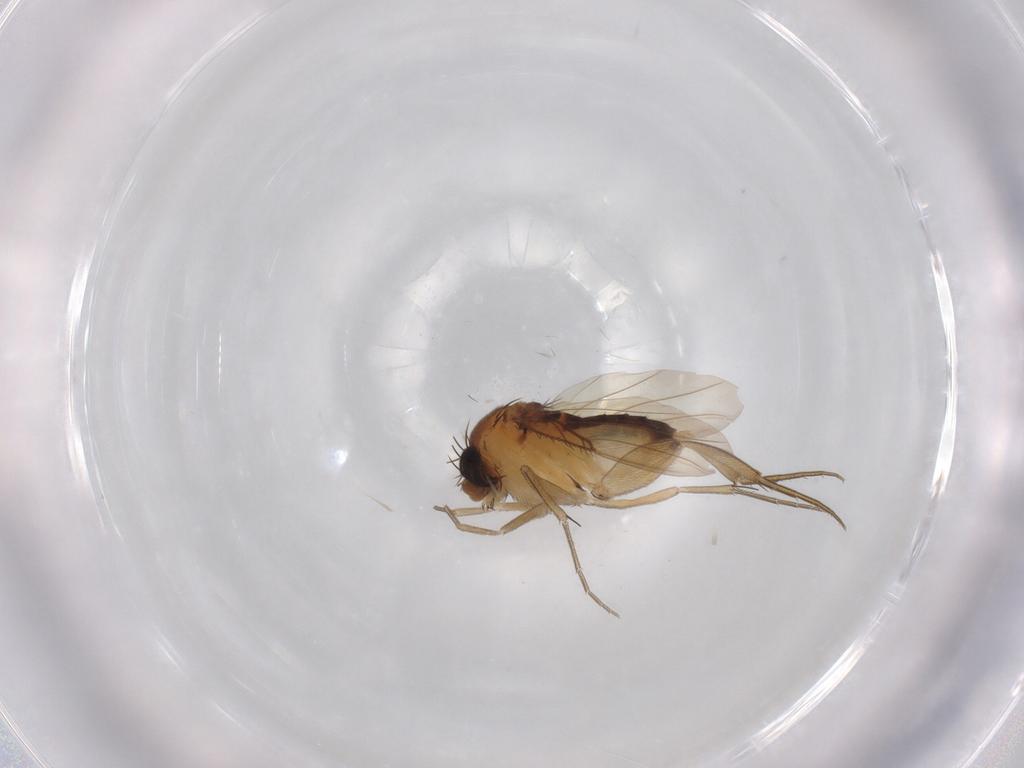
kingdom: Animalia
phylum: Arthropoda
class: Insecta
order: Diptera
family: Phoridae
